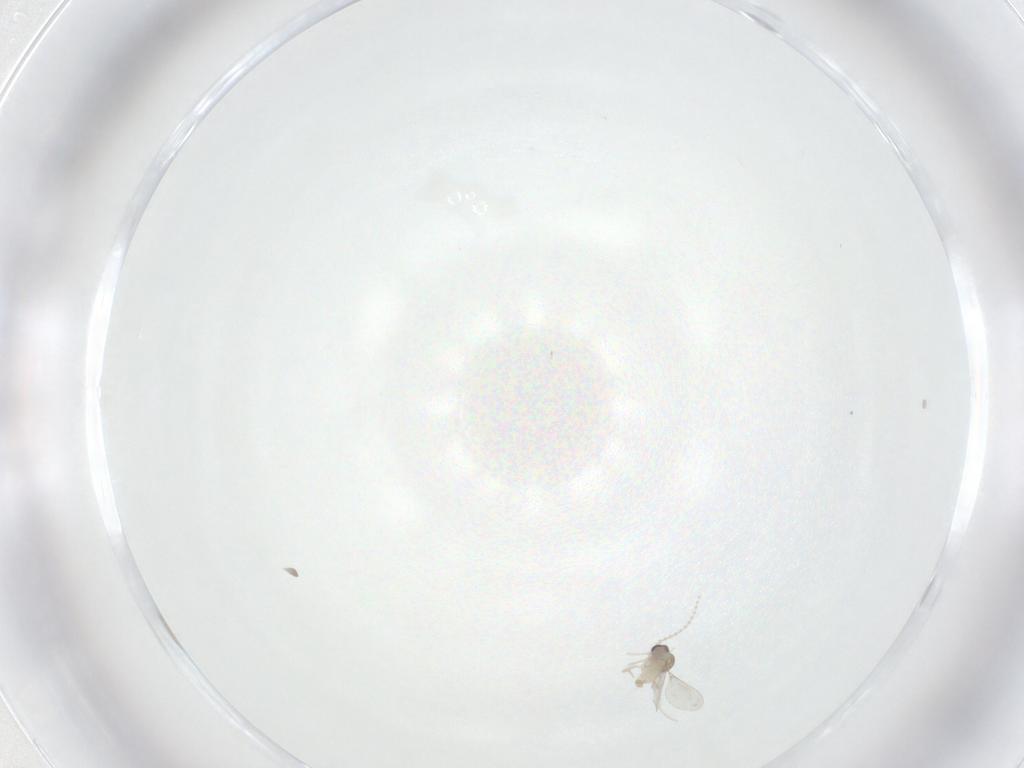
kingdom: Animalia
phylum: Arthropoda
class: Insecta
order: Diptera
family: Cecidomyiidae
